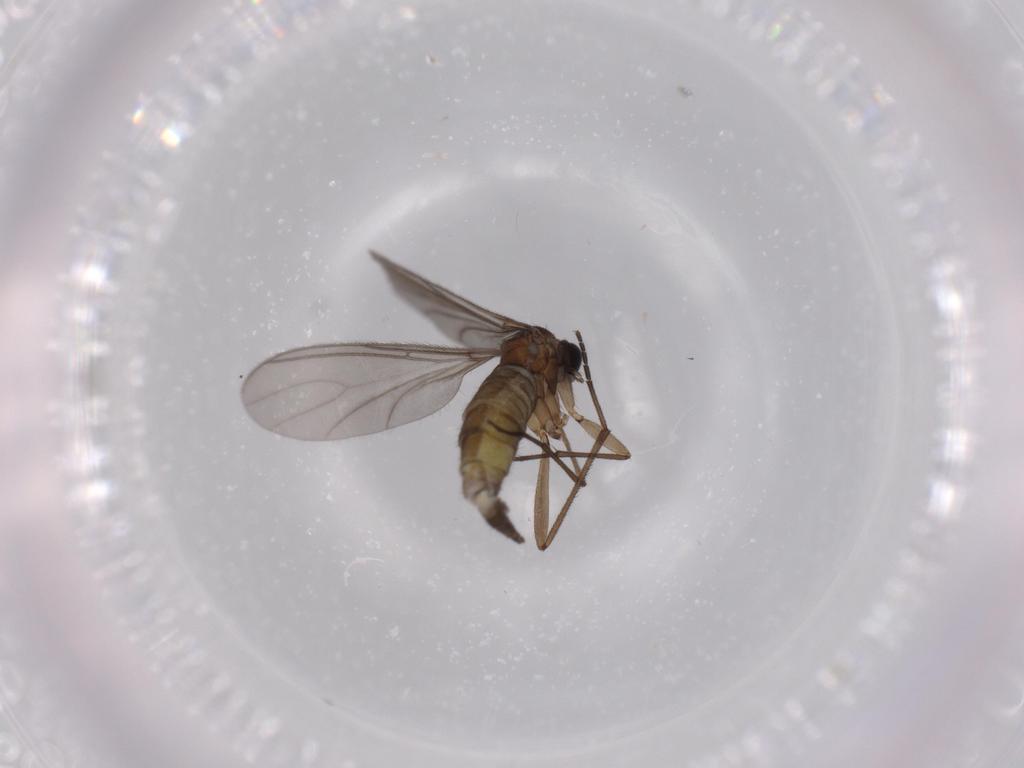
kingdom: Animalia
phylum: Arthropoda
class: Insecta
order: Diptera
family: Sciaridae
